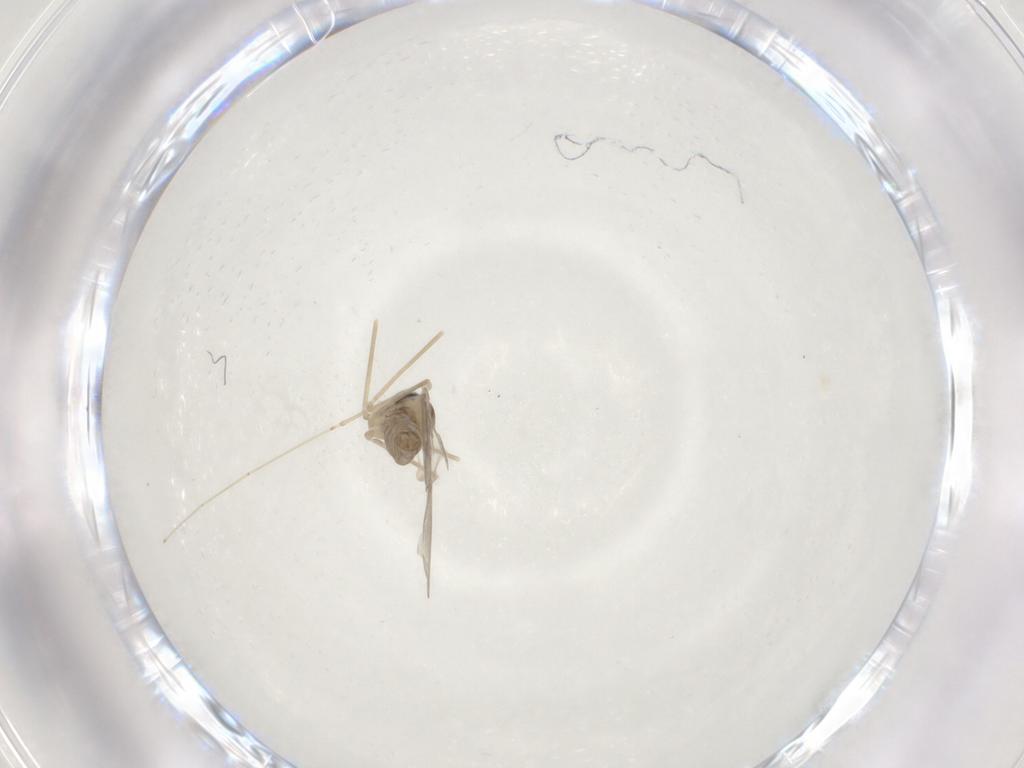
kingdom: Animalia
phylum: Arthropoda
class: Insecta
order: Diptera
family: Cecidomyiidae
